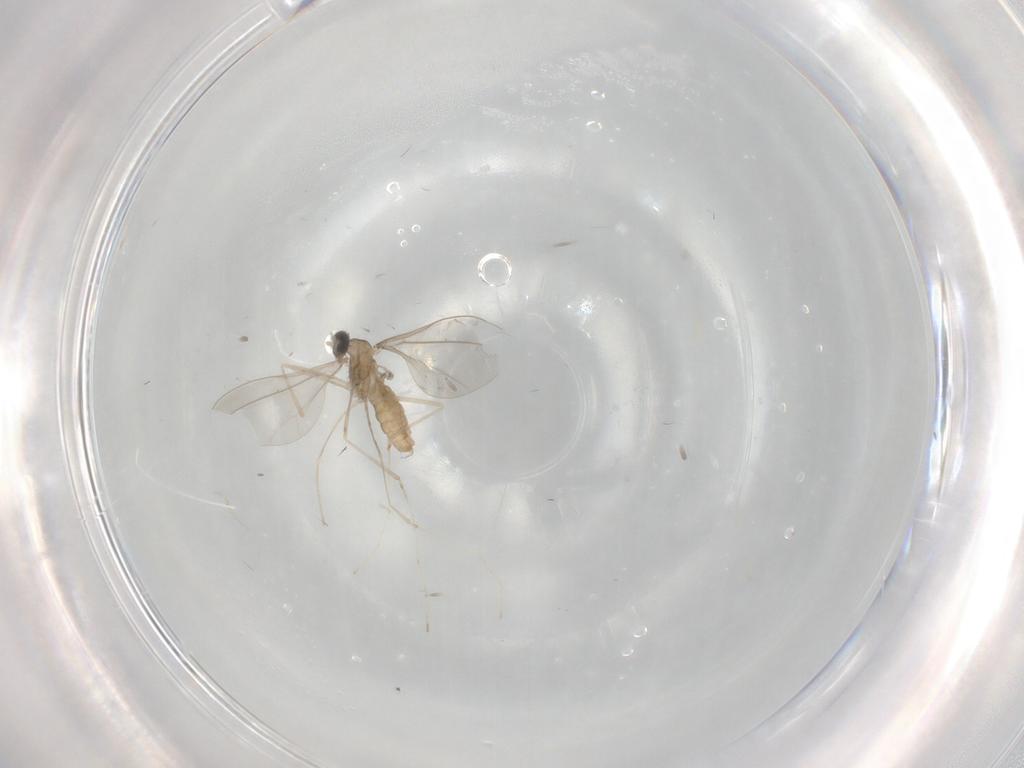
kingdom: Animalia
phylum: Arthropoda
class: Insecta
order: Diptera
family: Cecidomyiidae
